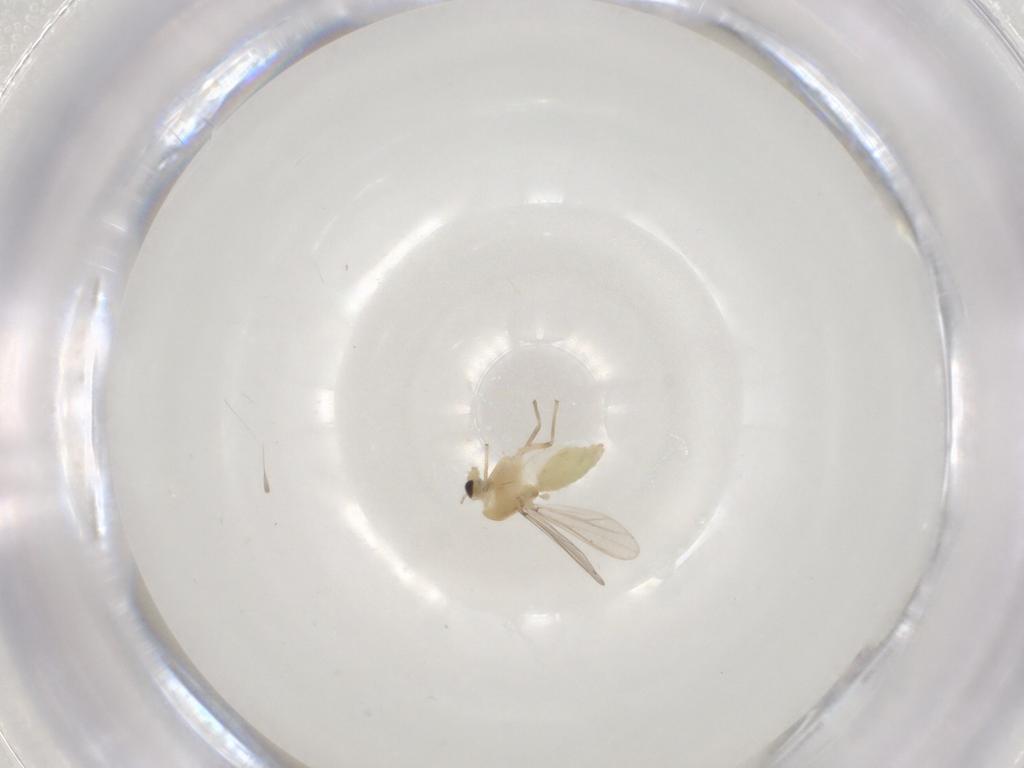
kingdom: Animalia
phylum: Arthropoda
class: Insecta
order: Diptera
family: Chironomidae
